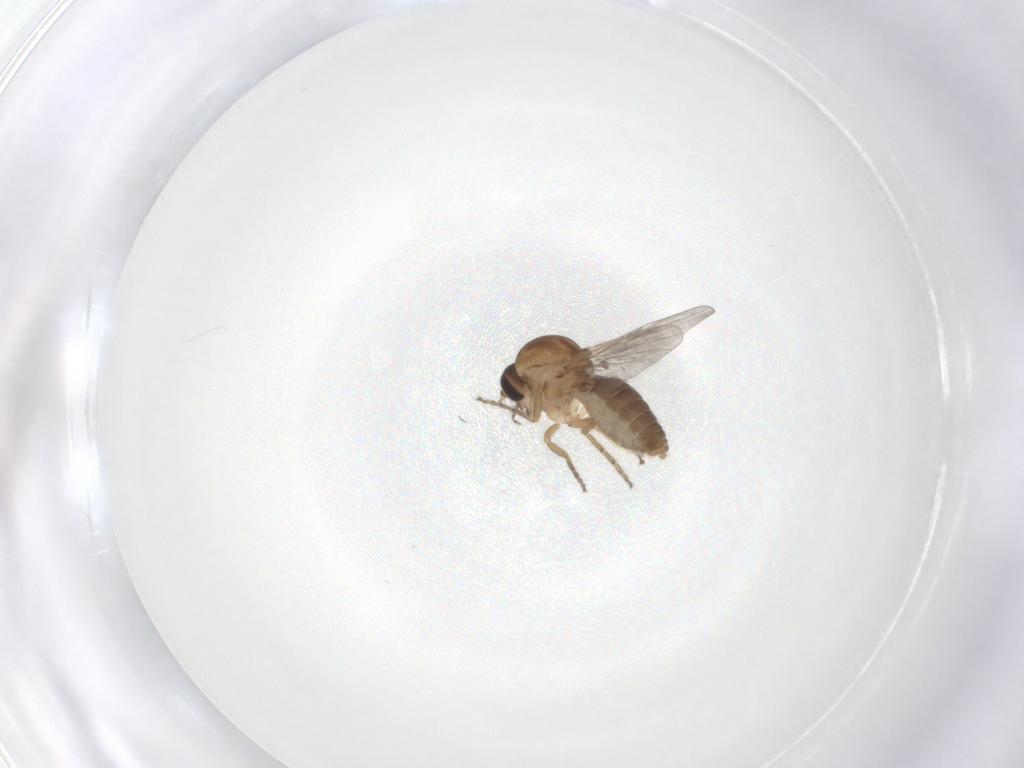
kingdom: Animalia
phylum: Arthropoda
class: Insecta
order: Diptera
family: Ceratopogonidae
